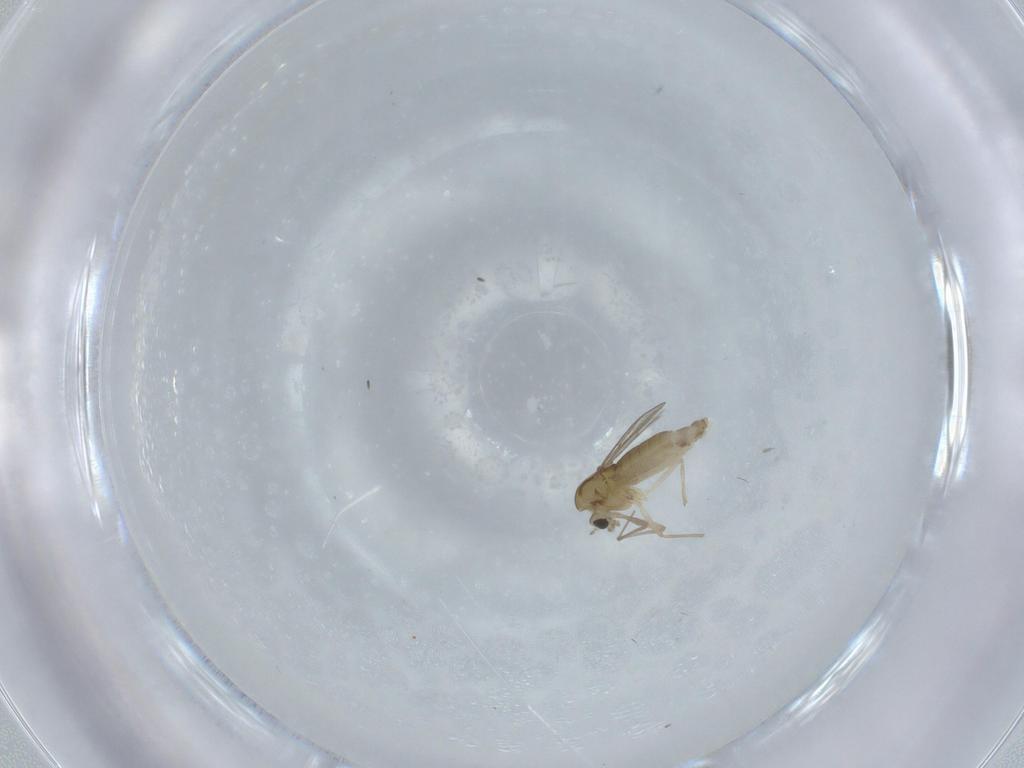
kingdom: Animalia
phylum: Arthropoda
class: Insecta
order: Diptera
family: Chironomidae
